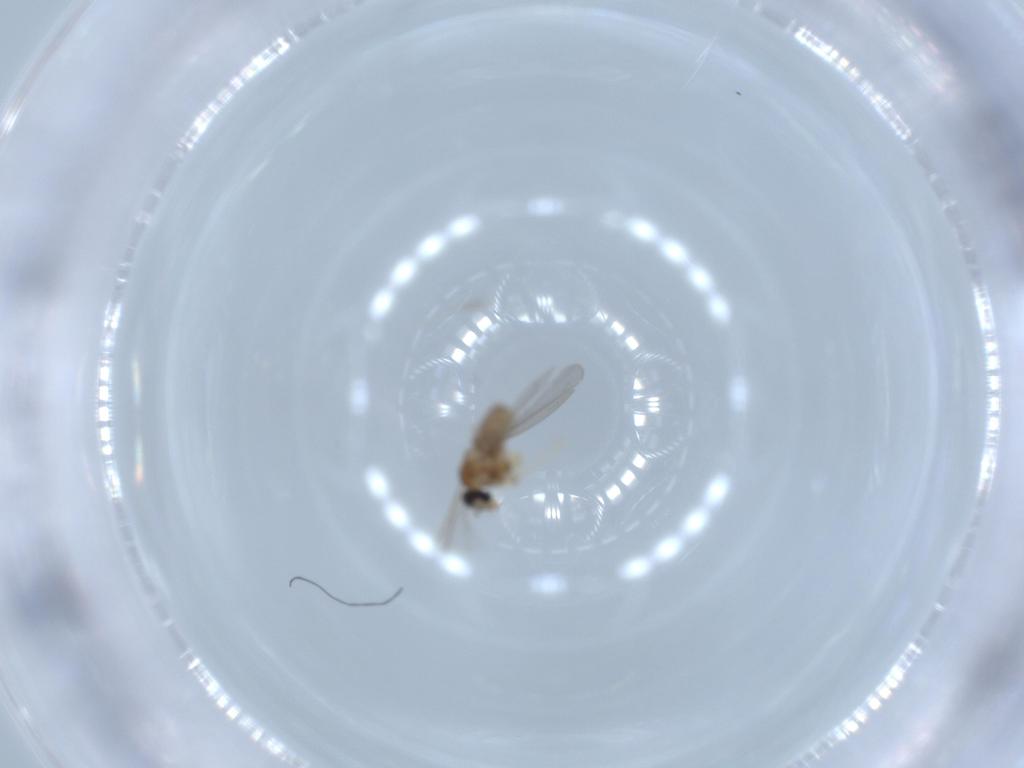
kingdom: Animalia
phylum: Arthropoda
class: Insecta
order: Diptera
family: Cecidomyiidae
